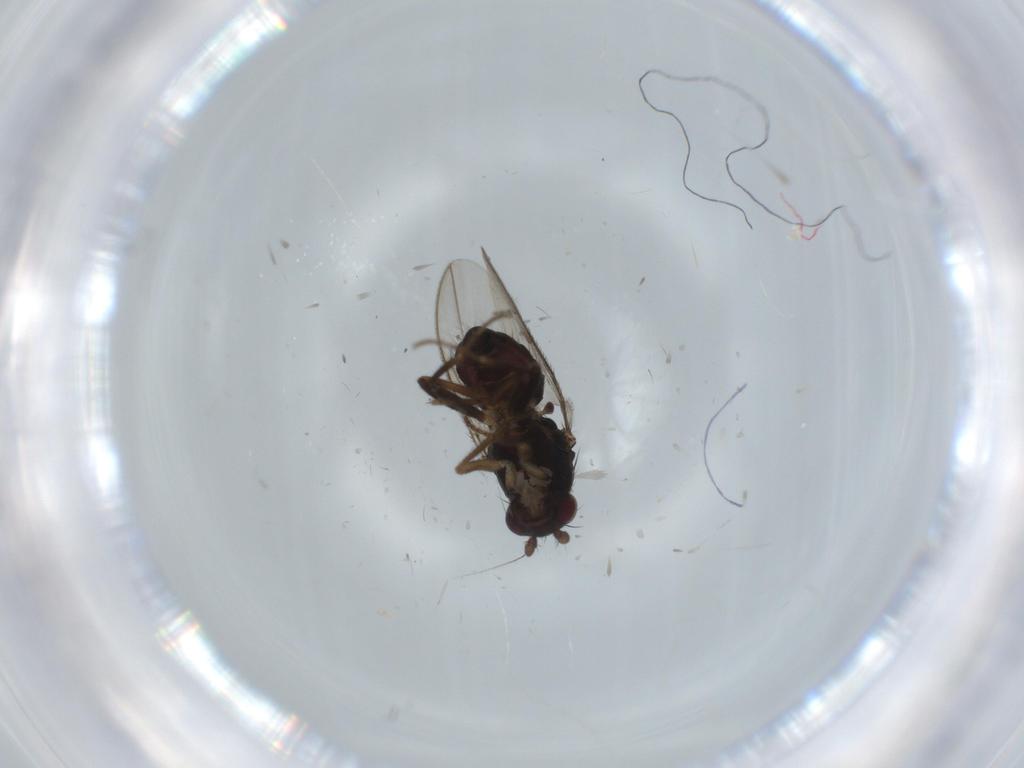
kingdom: Animalia
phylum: Arthropoda
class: Insecta
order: Diptera
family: Sphaeroceridae
